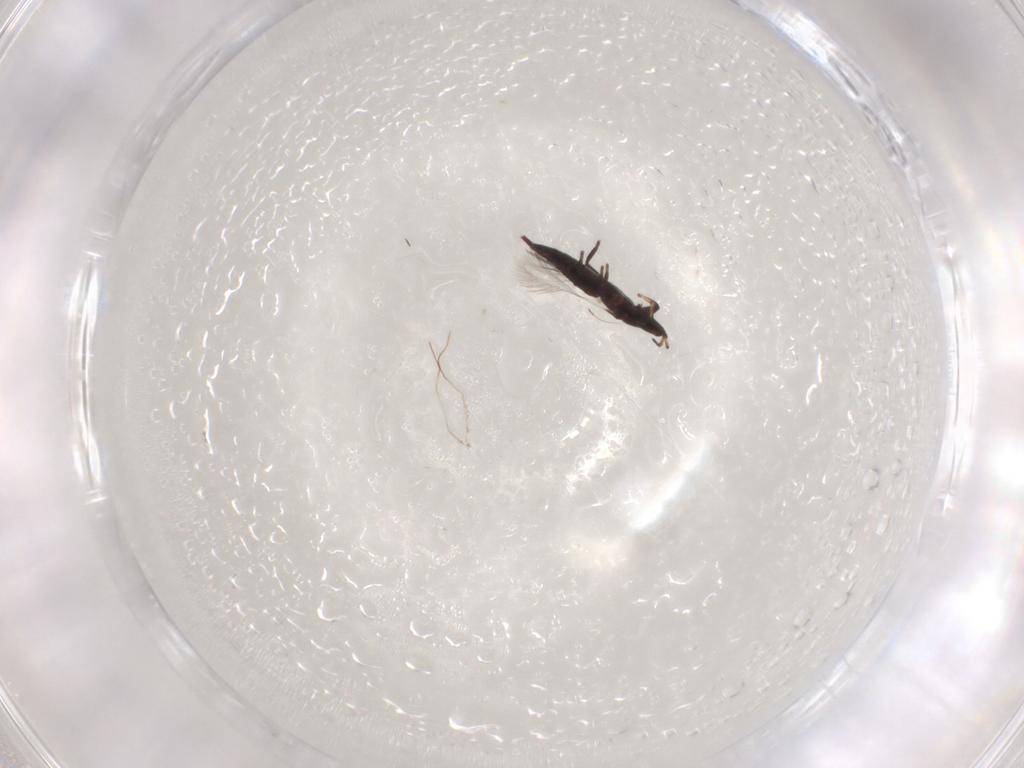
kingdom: Animalia
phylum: Arthropoda
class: Insecta
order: Thysanoptera
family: Phlaeothripidae
